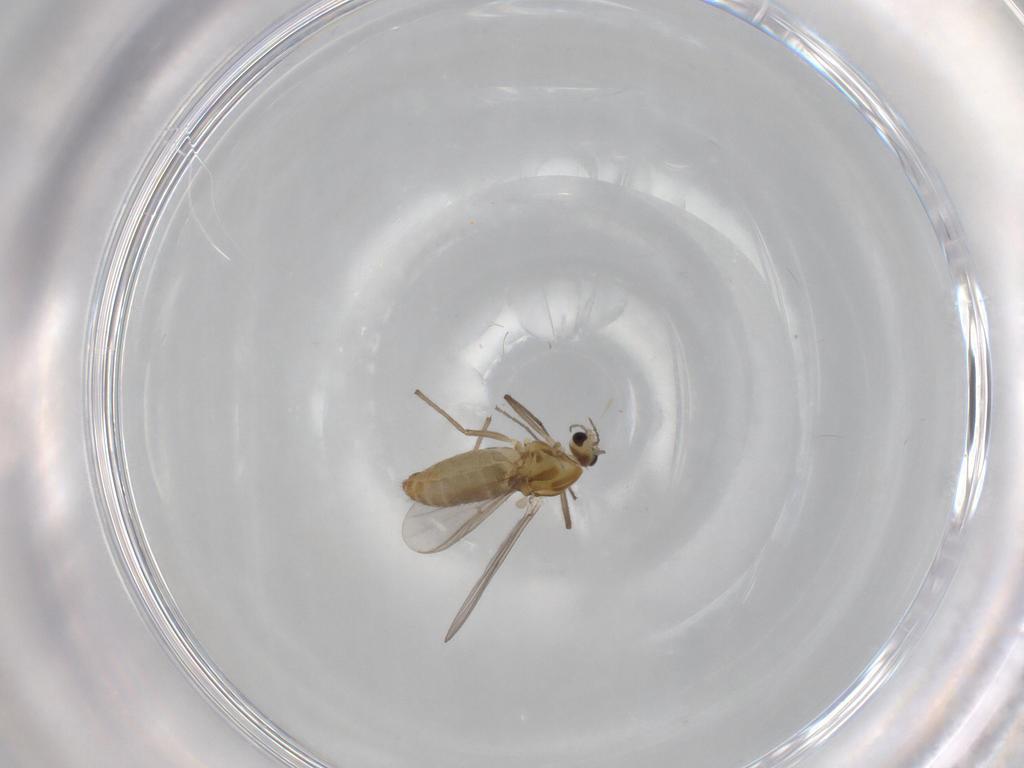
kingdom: Animalia
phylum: Arthropoda
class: Insecta
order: Diptera
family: Chironomidae
